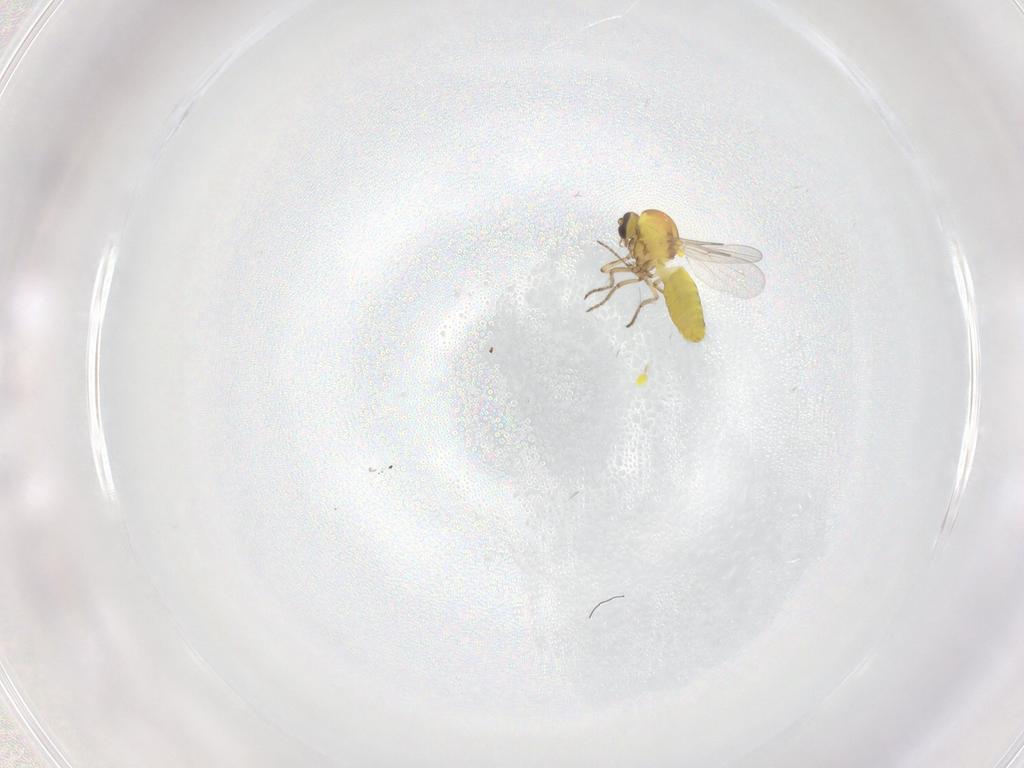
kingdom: Animalia
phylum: Arthropoda
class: Insecta
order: Diptera
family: Ceratopogonidae
